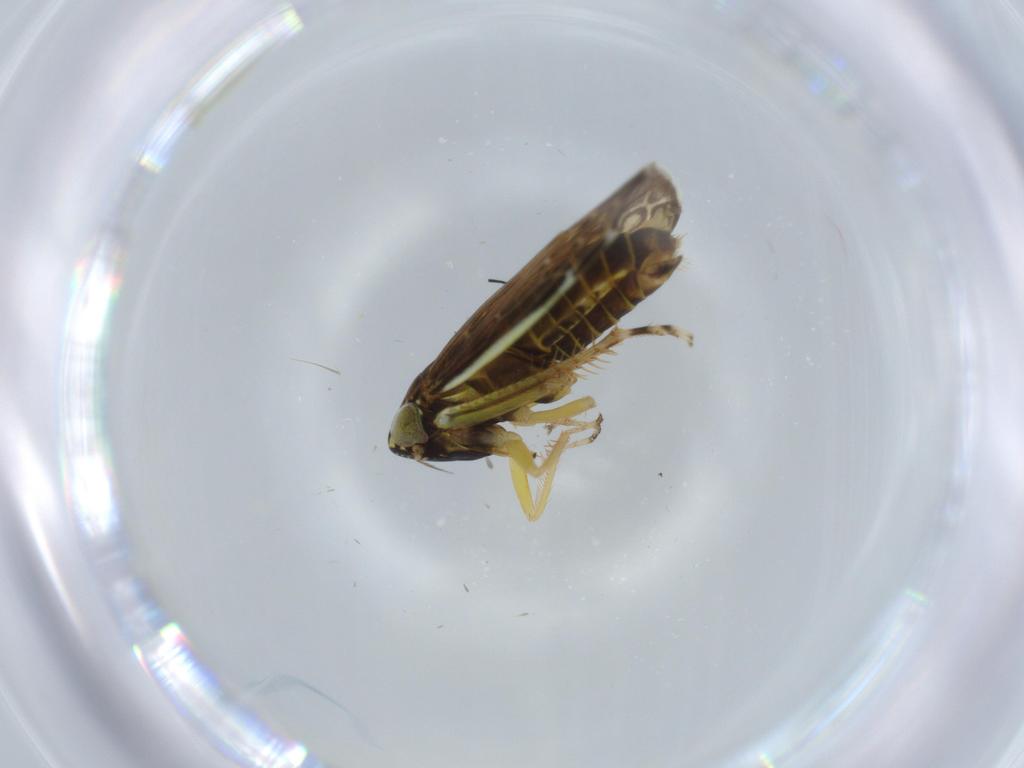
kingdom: Animalia
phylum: Arthropoda
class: Insecta
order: Hemiptera
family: Cicadellidae
